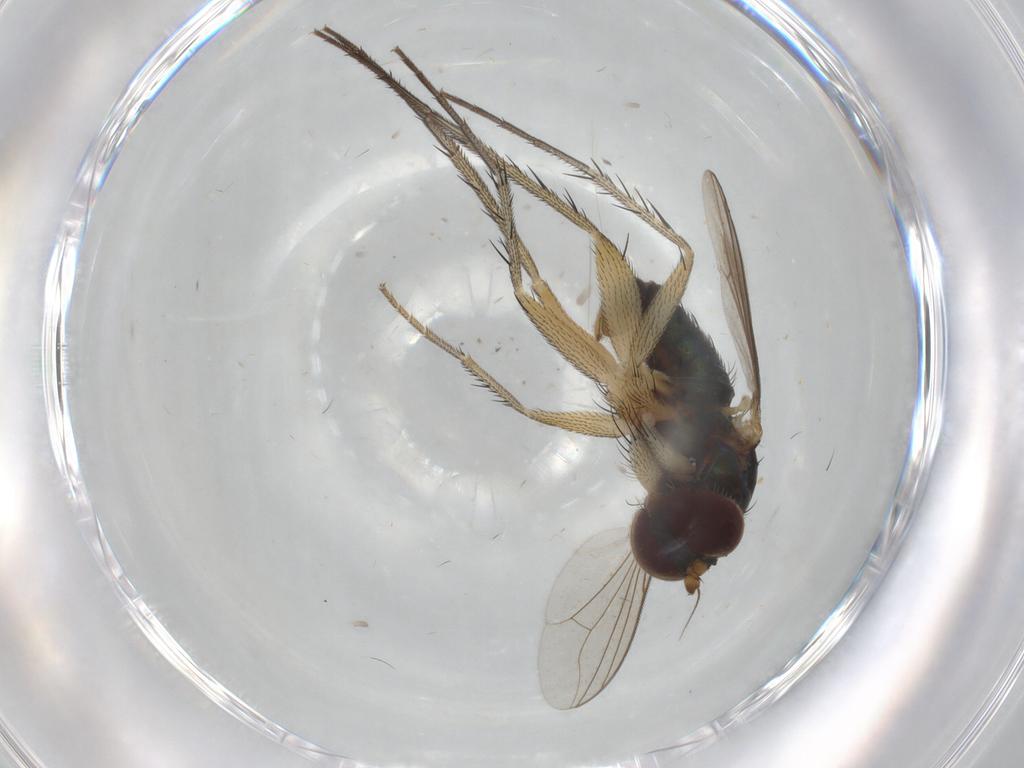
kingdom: Animalia
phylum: Arthropoda
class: Insecta
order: Diptera
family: Dolichopodidae
